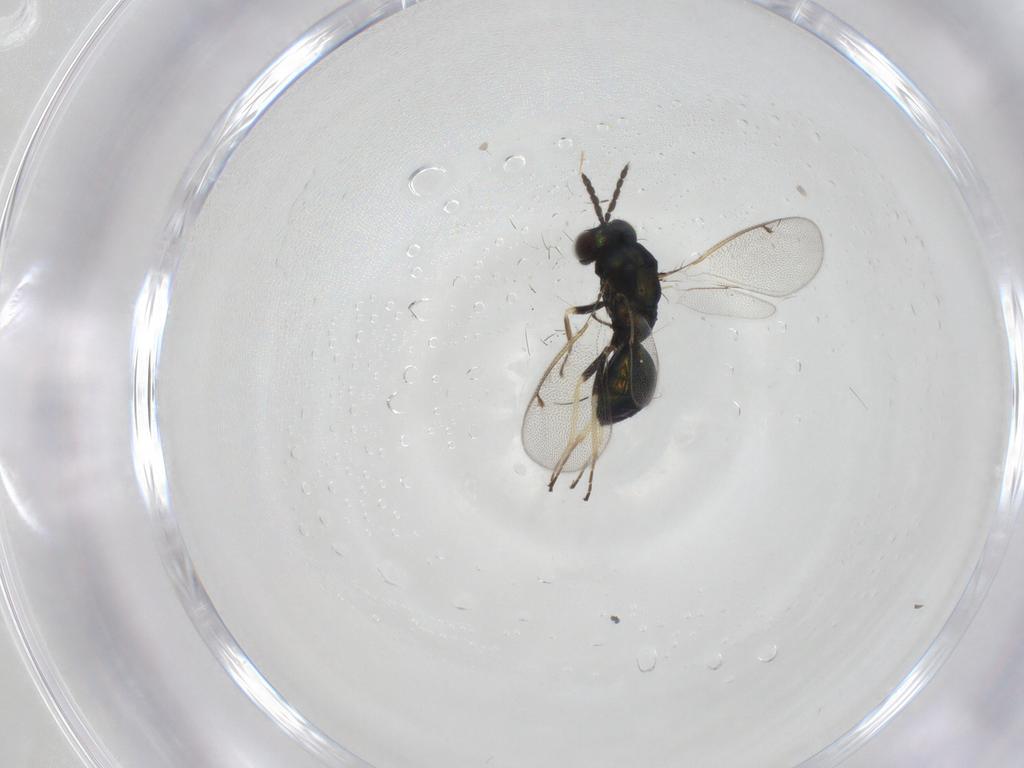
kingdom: Animalia
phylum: Arthropoda
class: Insecta
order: Hymenoptera
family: Eulophidae
